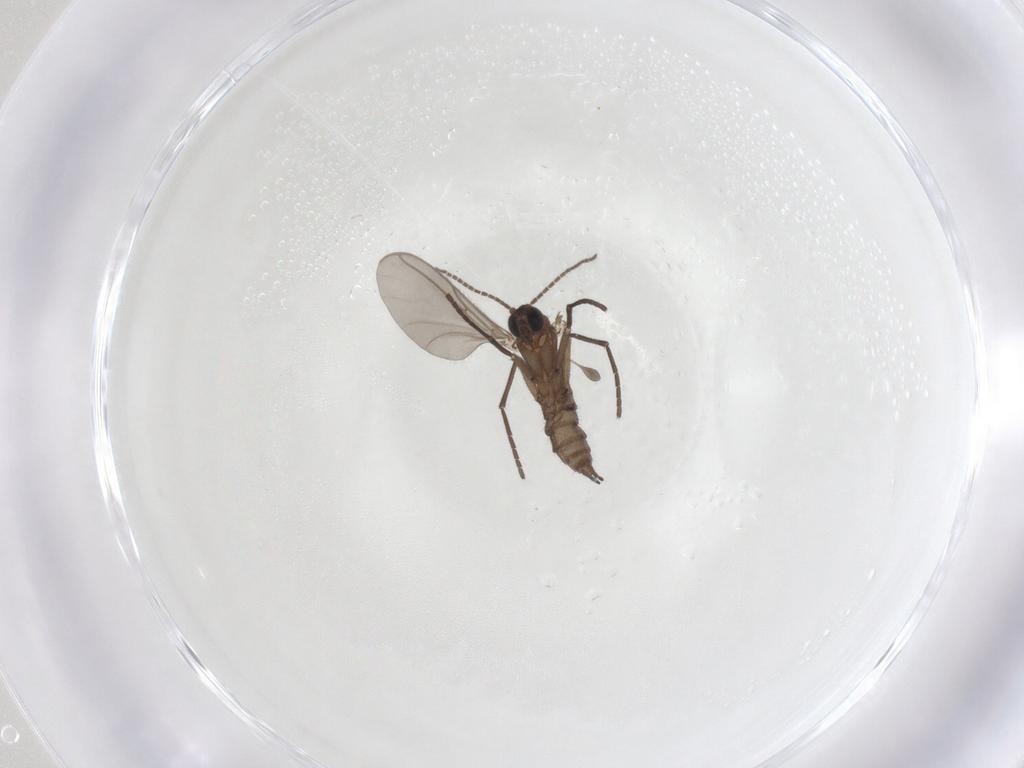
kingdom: Animalia
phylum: Arthropoda
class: Insecta
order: Diptera
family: Sciaridae
